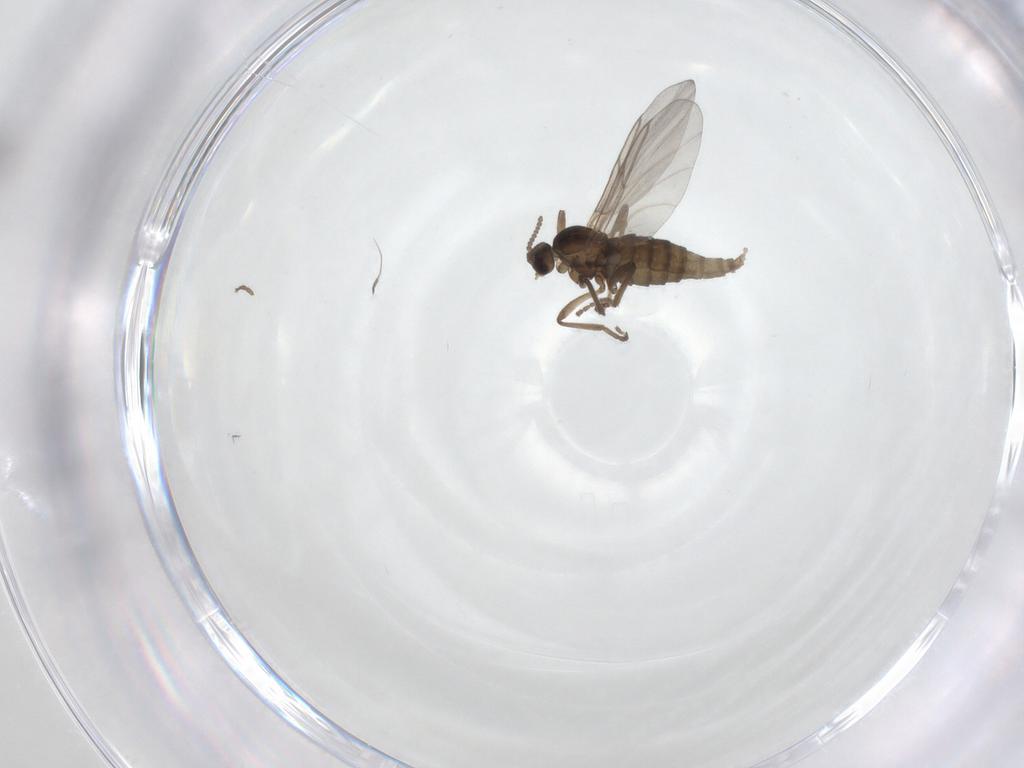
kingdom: Animalia
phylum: Arthropoda
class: Insecta
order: Diptera
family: Cecidomyiidae
